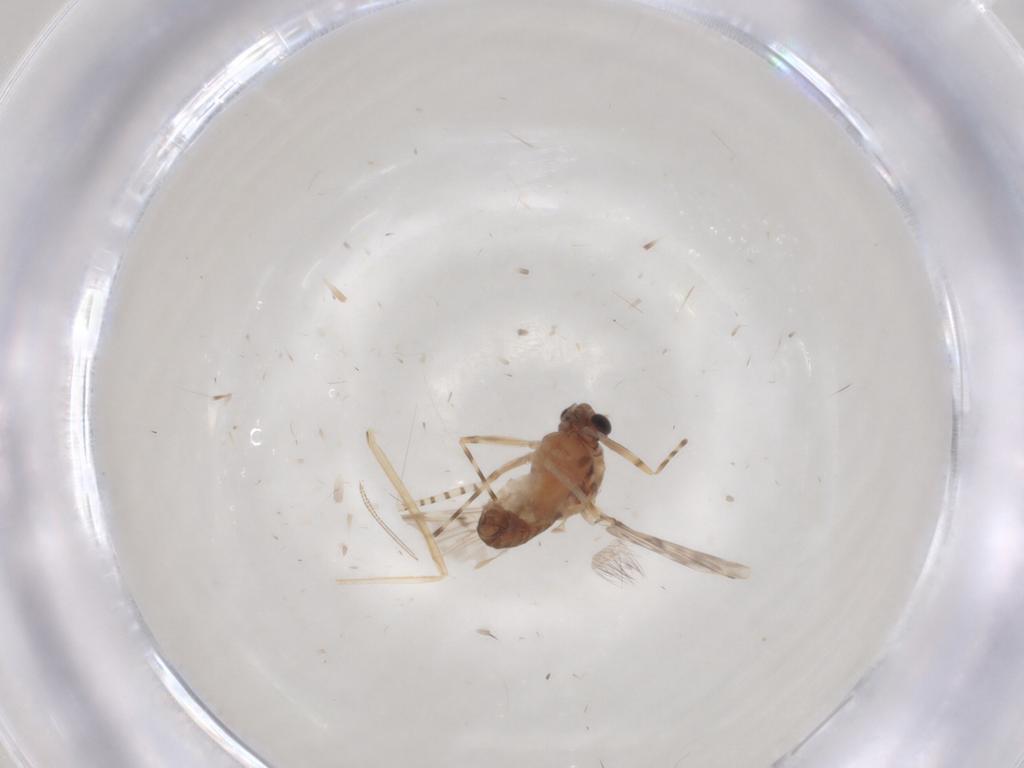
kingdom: Animalia
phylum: Arthropoda
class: Insecta
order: Diptera
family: Chironomidae
